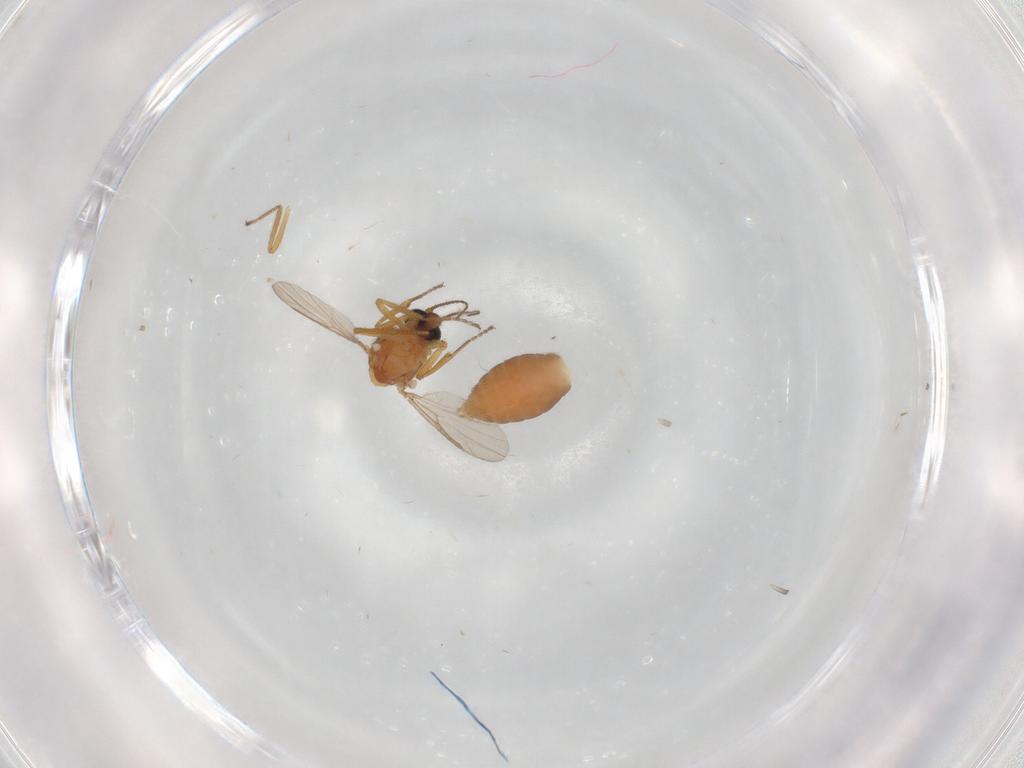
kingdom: Animalia
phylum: Arthropoda
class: Insecta
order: Diptera
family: Ceratopogonidae
